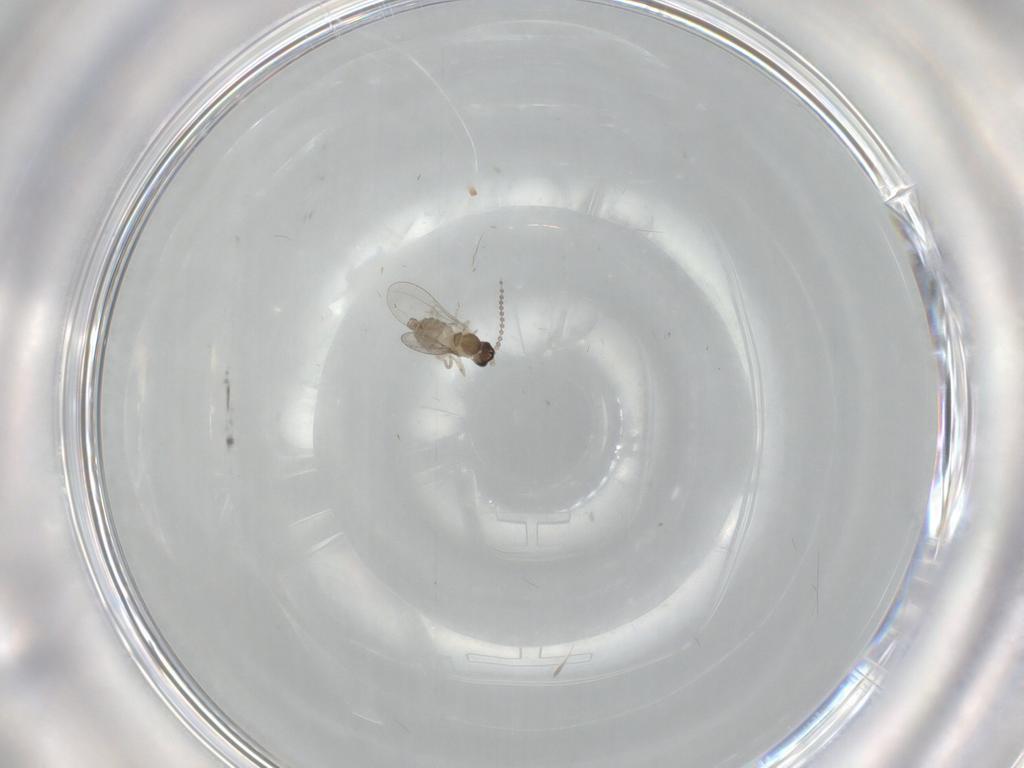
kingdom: Animalia
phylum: Arthropoda
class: Insecta
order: Diptera
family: Cecidomyiidae
